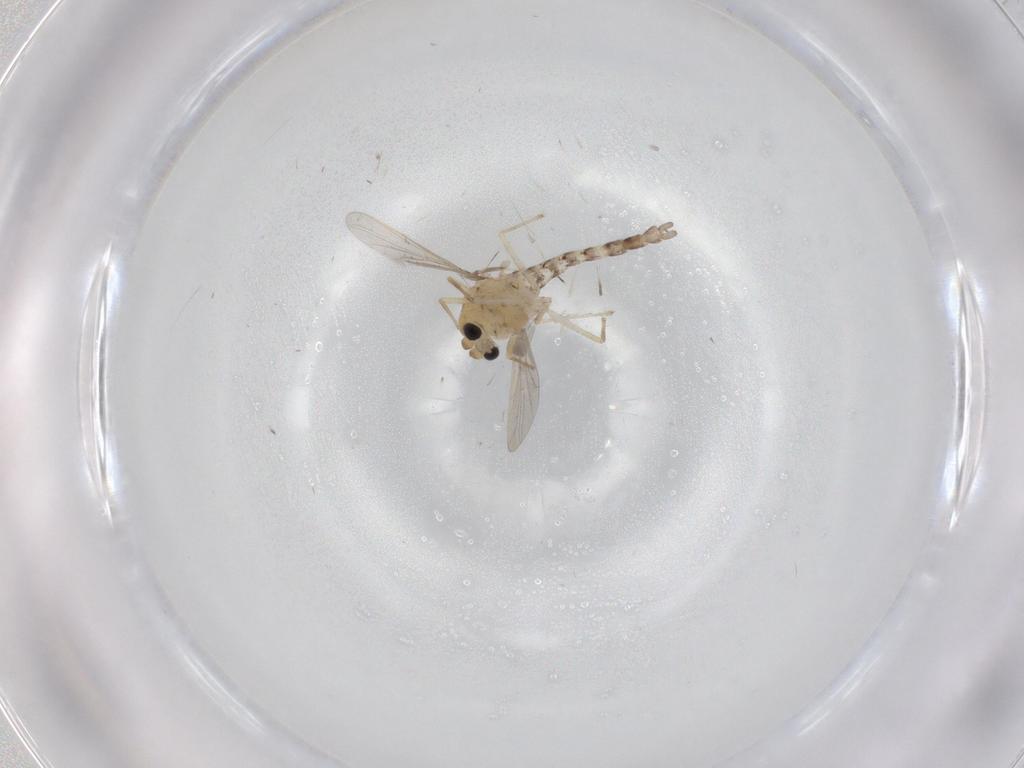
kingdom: Animalia
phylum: Arthropoda
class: Insecta
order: Diptera
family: Chironomidae
